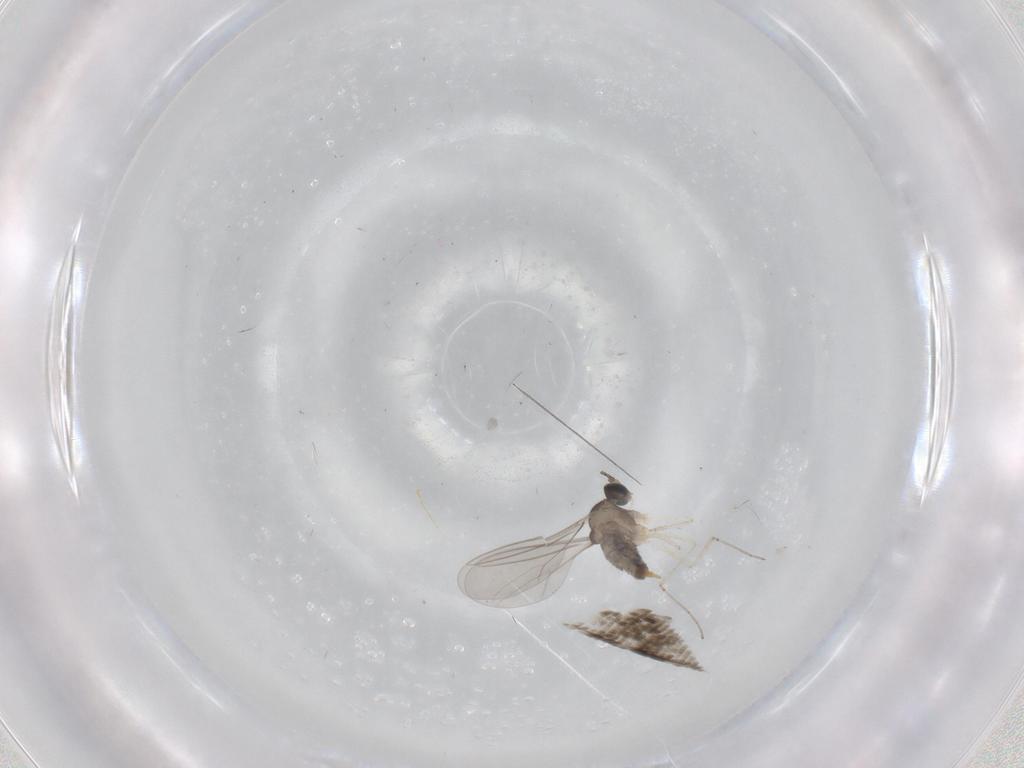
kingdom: Animalia
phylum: Arthropoda
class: Insecta
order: Diptera
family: Cecidomyiidae
